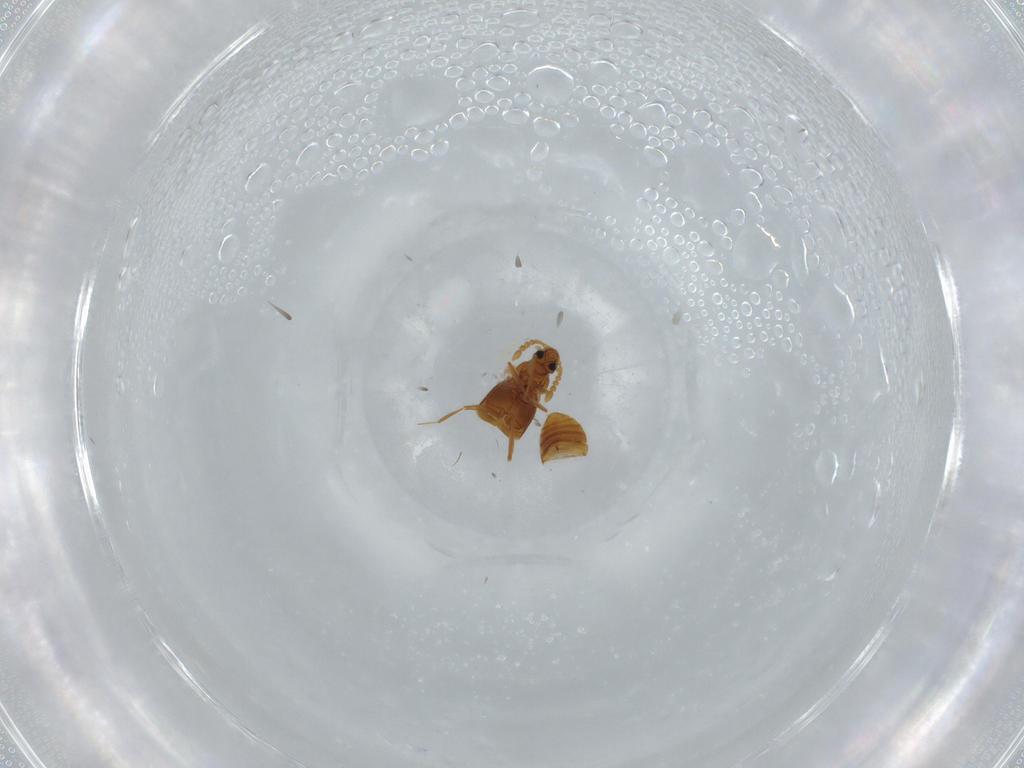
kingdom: Animalia
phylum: Arthropoda
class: Insecta
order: Coleoptera
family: Staphylinidae
